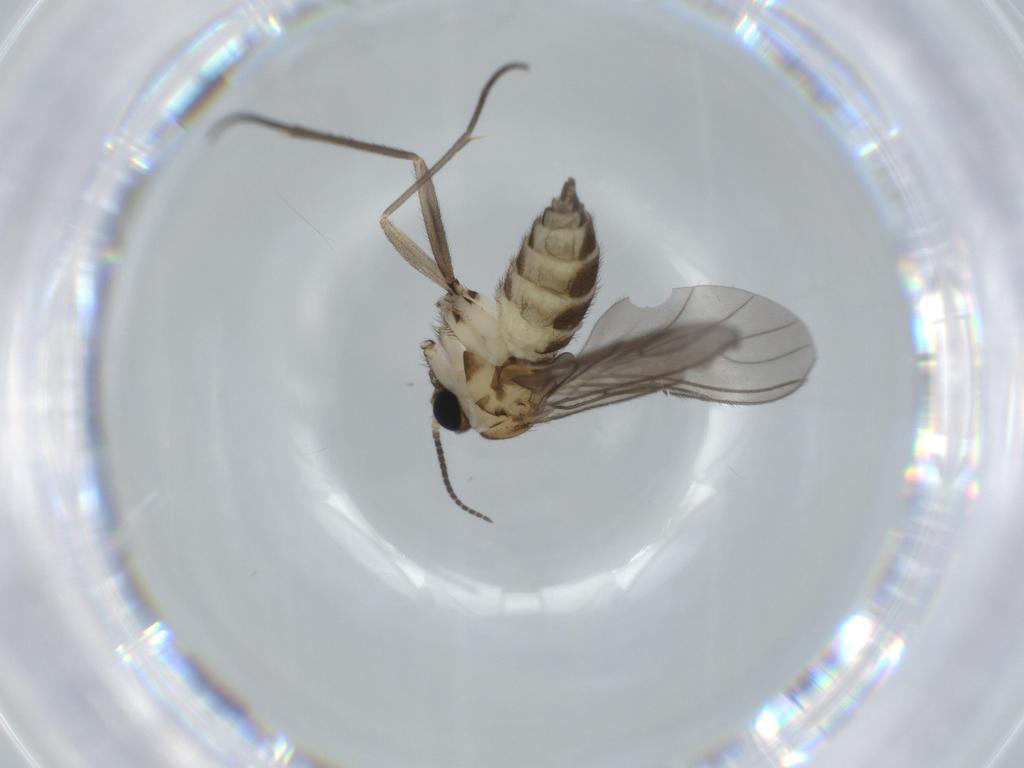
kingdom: Animalia
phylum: Arthropoda
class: Insecta
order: Diptera
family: Sciaridae
